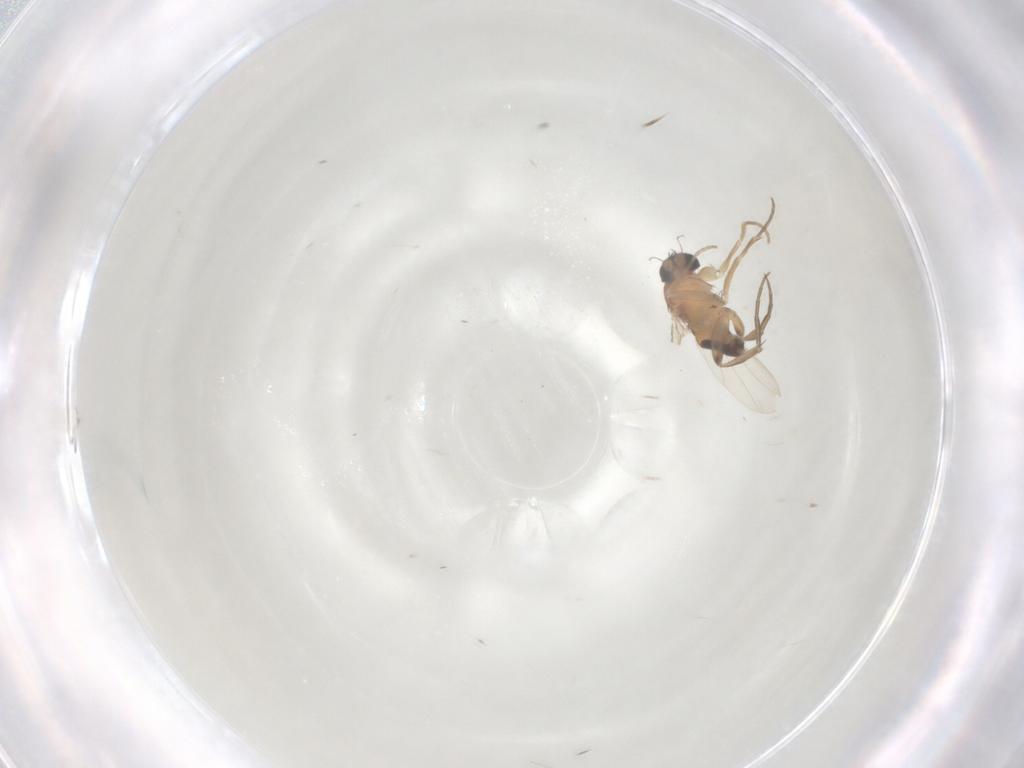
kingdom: Animalia
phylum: Arthropoda
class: Insecta
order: Diptera
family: Phoridae
